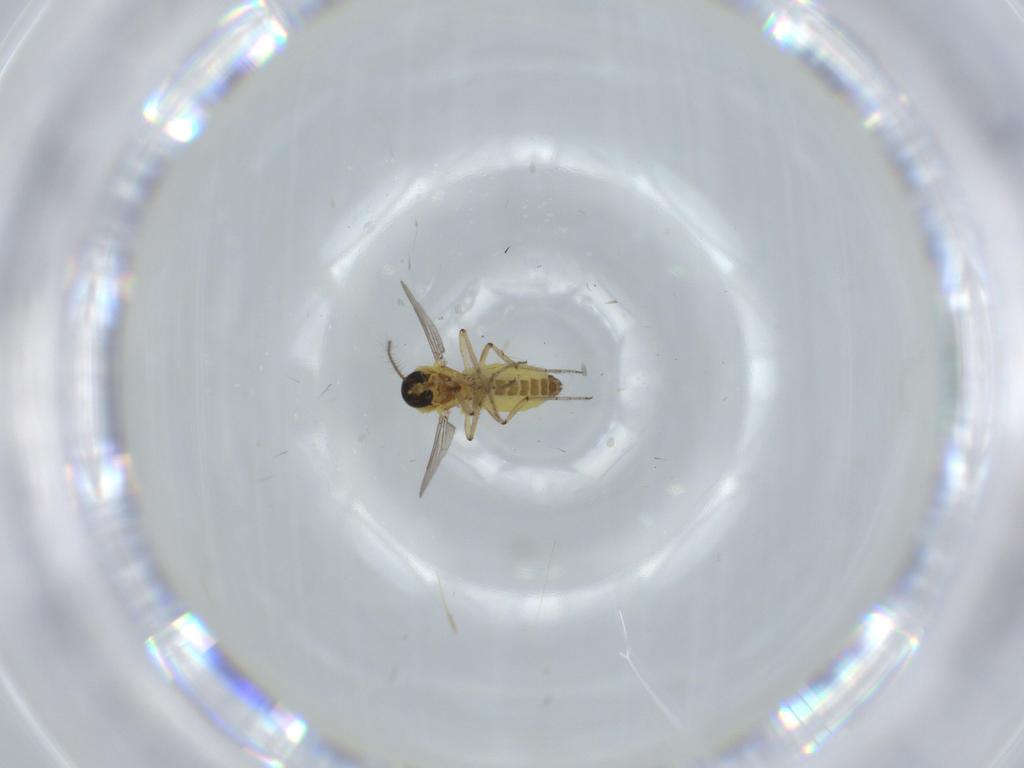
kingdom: Animalia
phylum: Arthropoda
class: Insecta
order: Diptera
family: Ceratopogonidae
